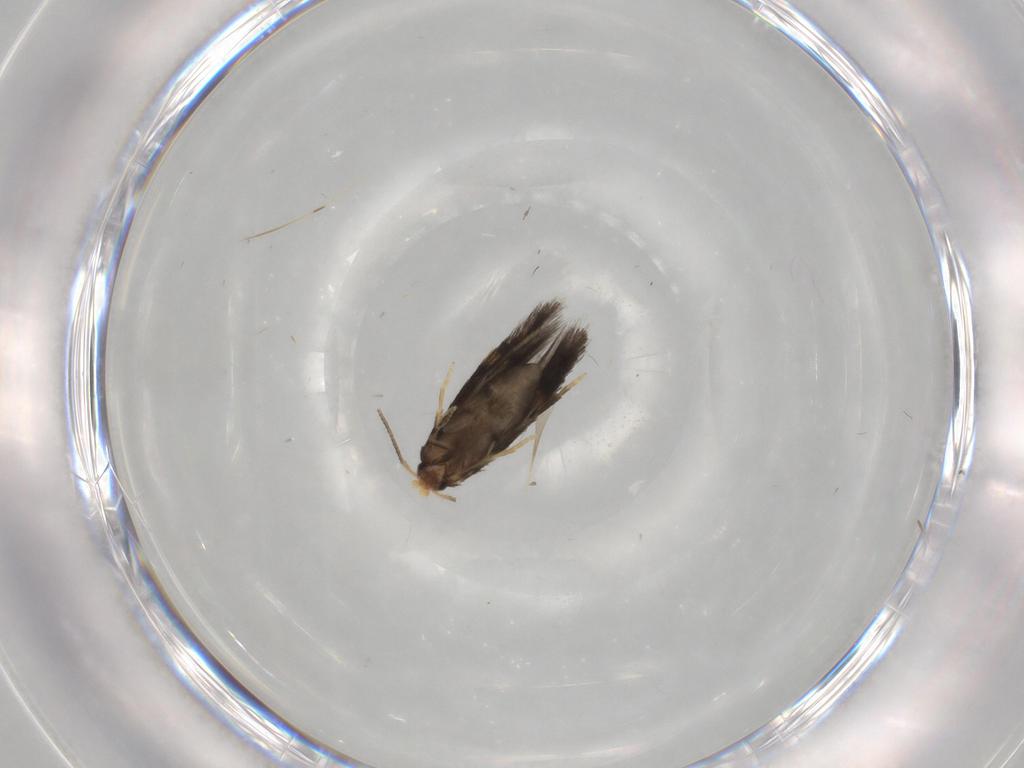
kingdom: Animalia
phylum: Arthropoda
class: Insecta
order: Lepidoptera
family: Nepticulidae
